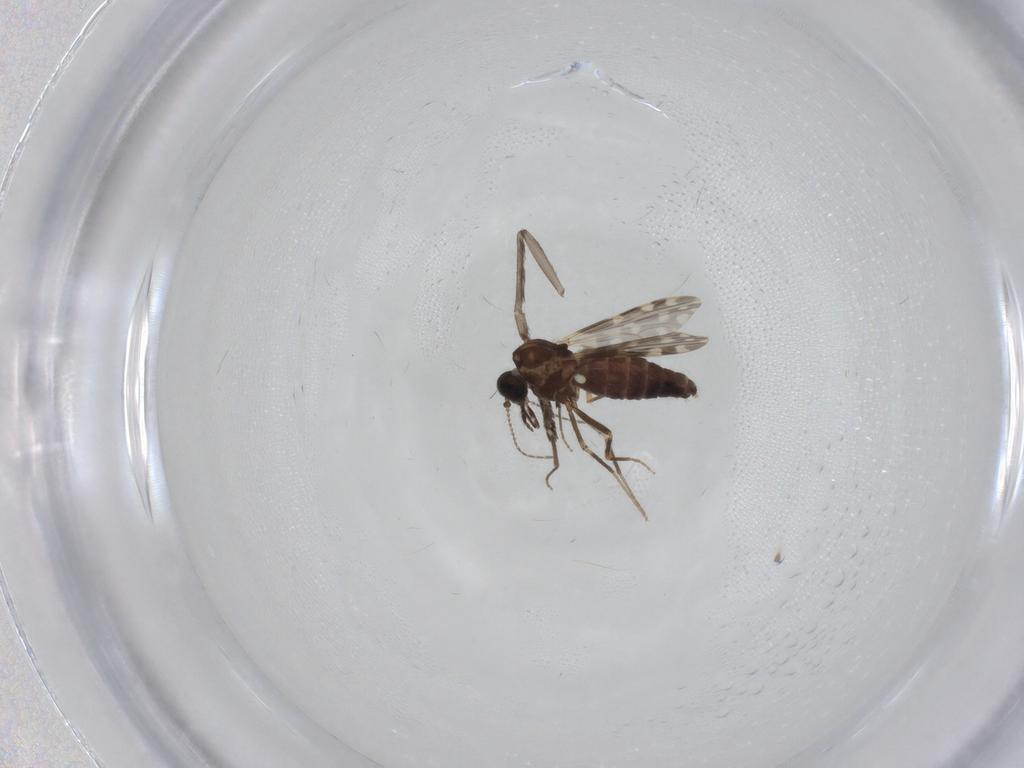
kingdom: Animalia
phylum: Arthropoda
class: Insecta
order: Diptera
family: Ceratopogonidae
